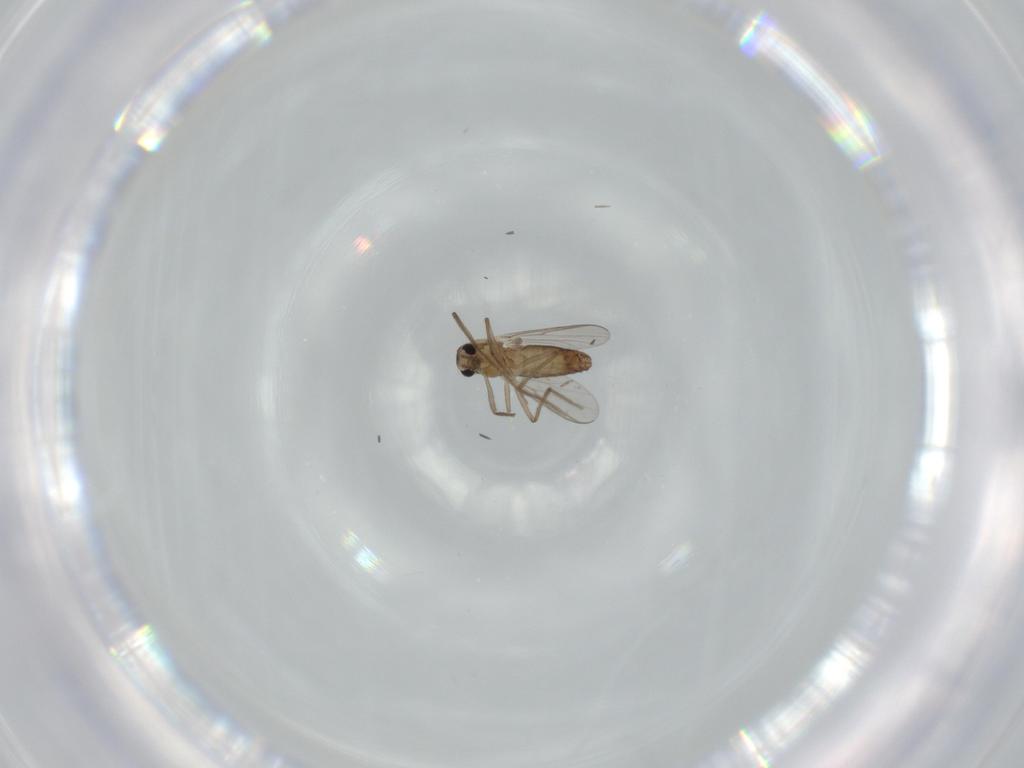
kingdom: Animalia
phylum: Arthropoda
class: Insecta
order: Diptera
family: Chironomidae
